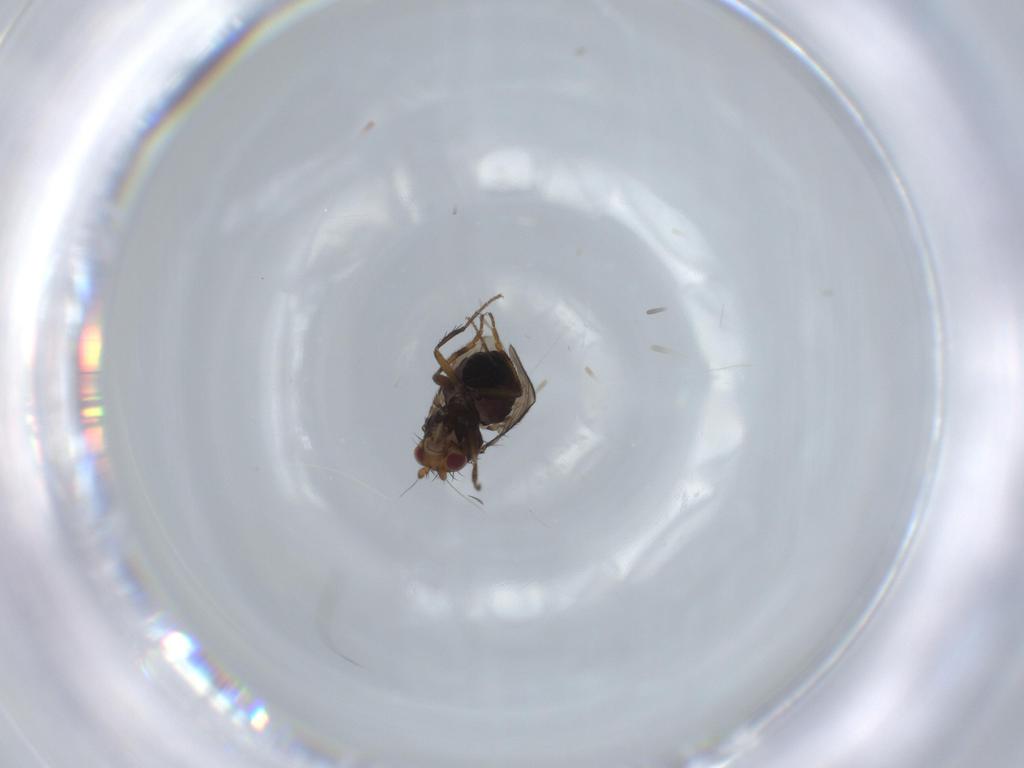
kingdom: Animalia
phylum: Arthropoda
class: Insecta
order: Diptera
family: Sphaeroceridae
